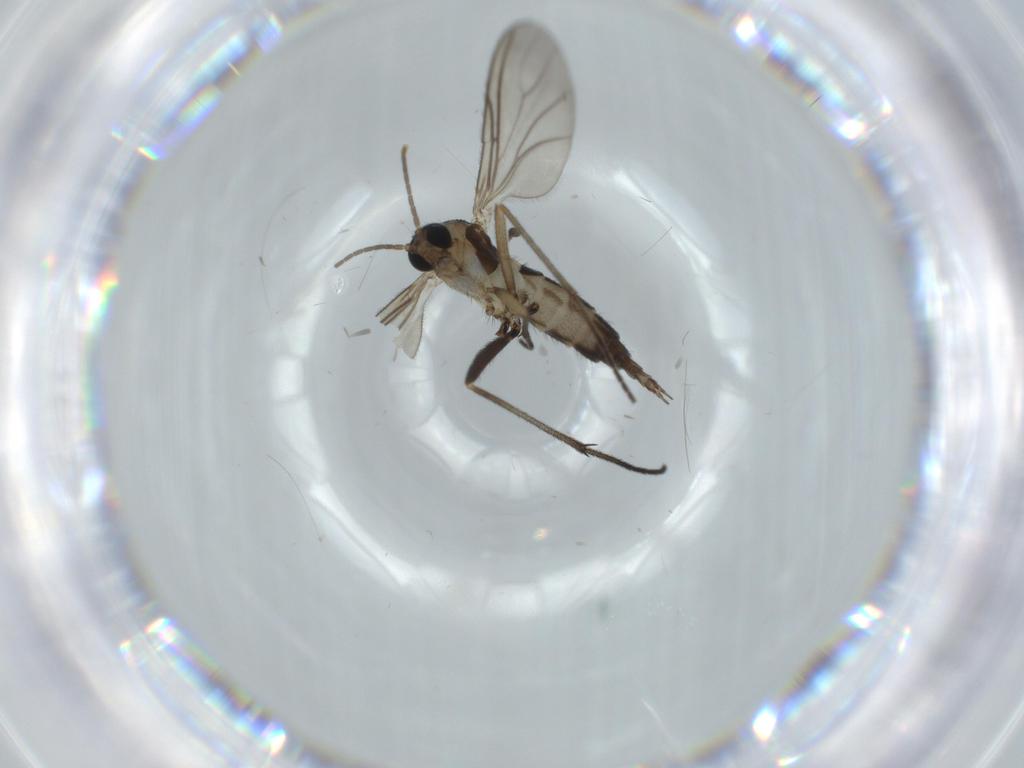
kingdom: Animalia
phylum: Arthropoda
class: Insecta
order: Diptera
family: Sciaridae
